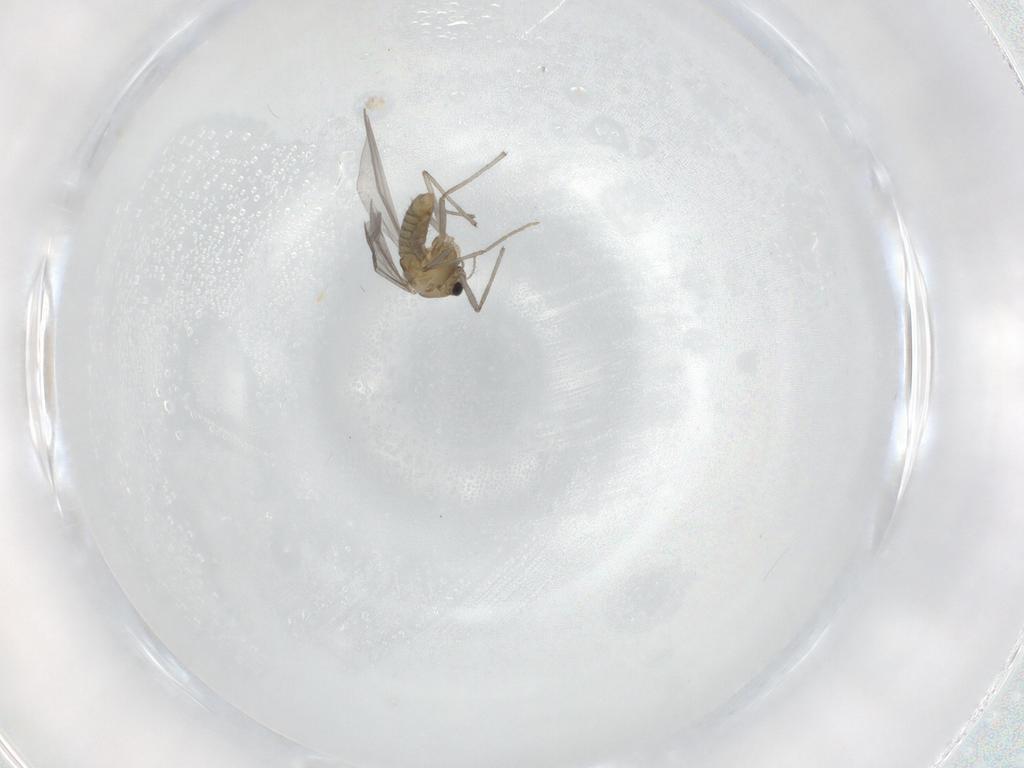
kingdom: Animalia
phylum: Arthropoda
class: Insecta
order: Diptera
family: Chironomidae
